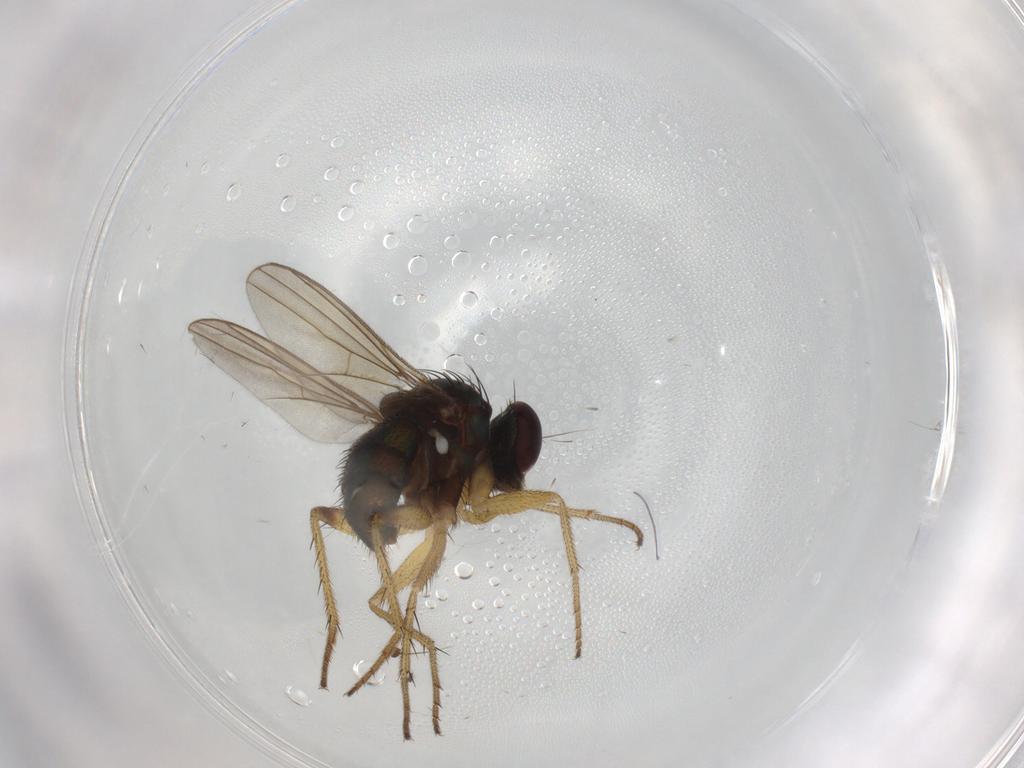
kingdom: Animalia
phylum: Arthropoda
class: Insecta
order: Diptera
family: Dolichopodidae
